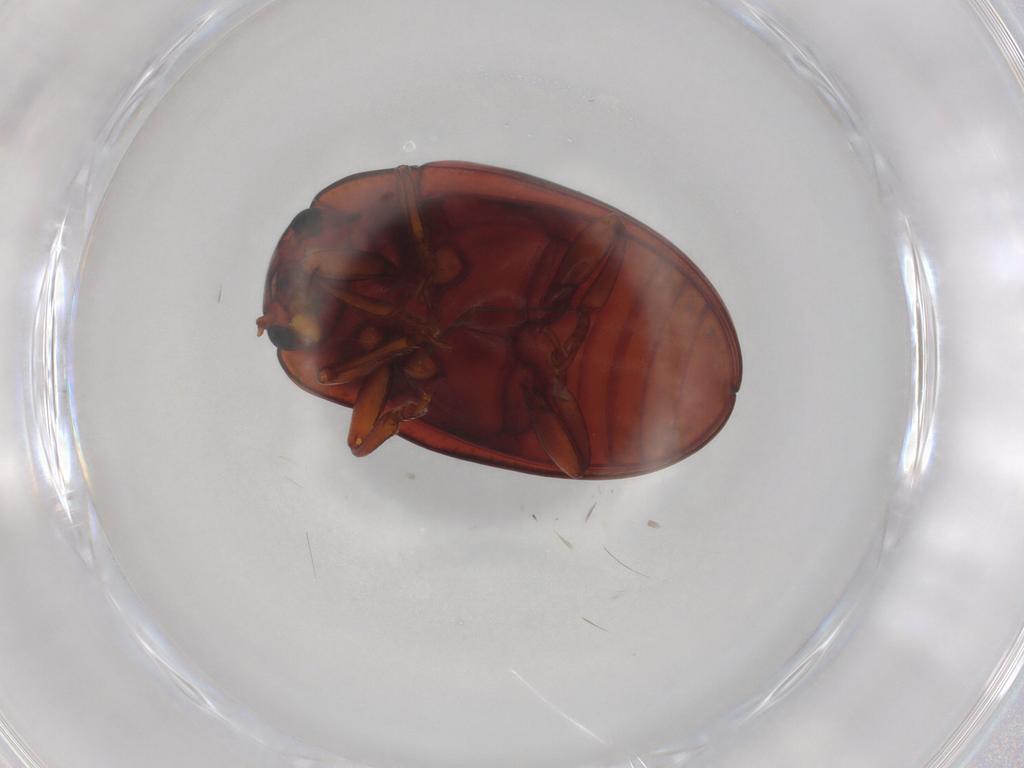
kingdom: Animalia
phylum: Arthropoda
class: Insecta
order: Coleoptera
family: Erotylidae
